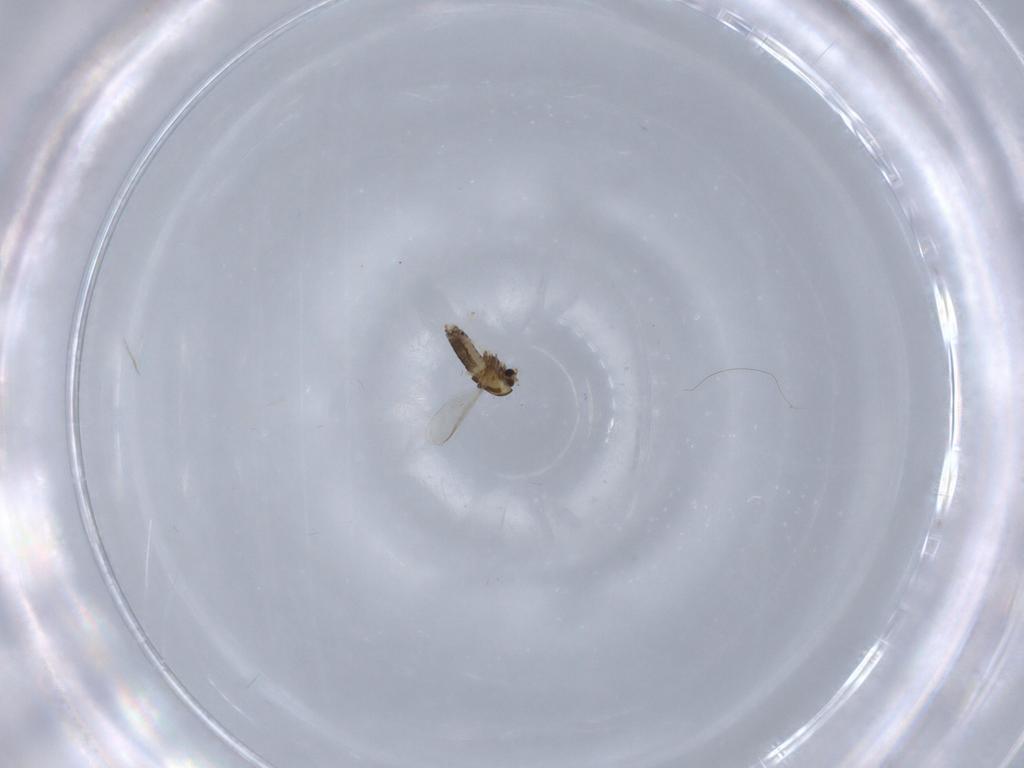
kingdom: Animalia
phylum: Arthropoda
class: Insecta
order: Diptera
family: Chironomidae
